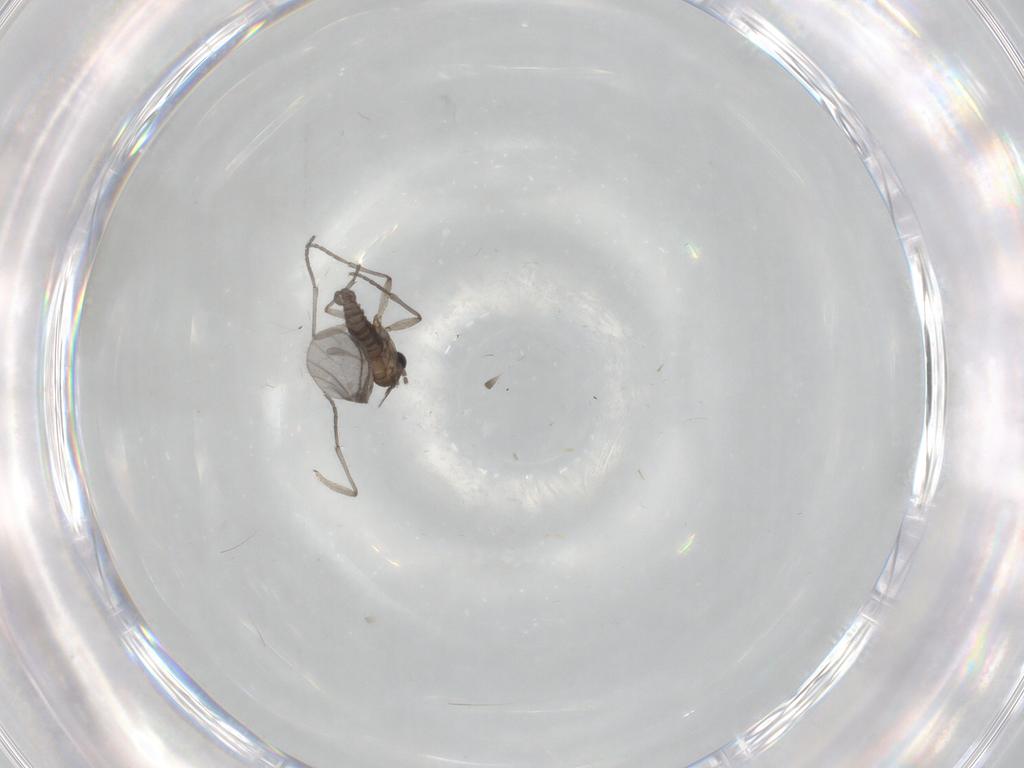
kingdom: Animalia
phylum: Arthropoda
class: Insecta
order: Diptera
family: Sciaridae
